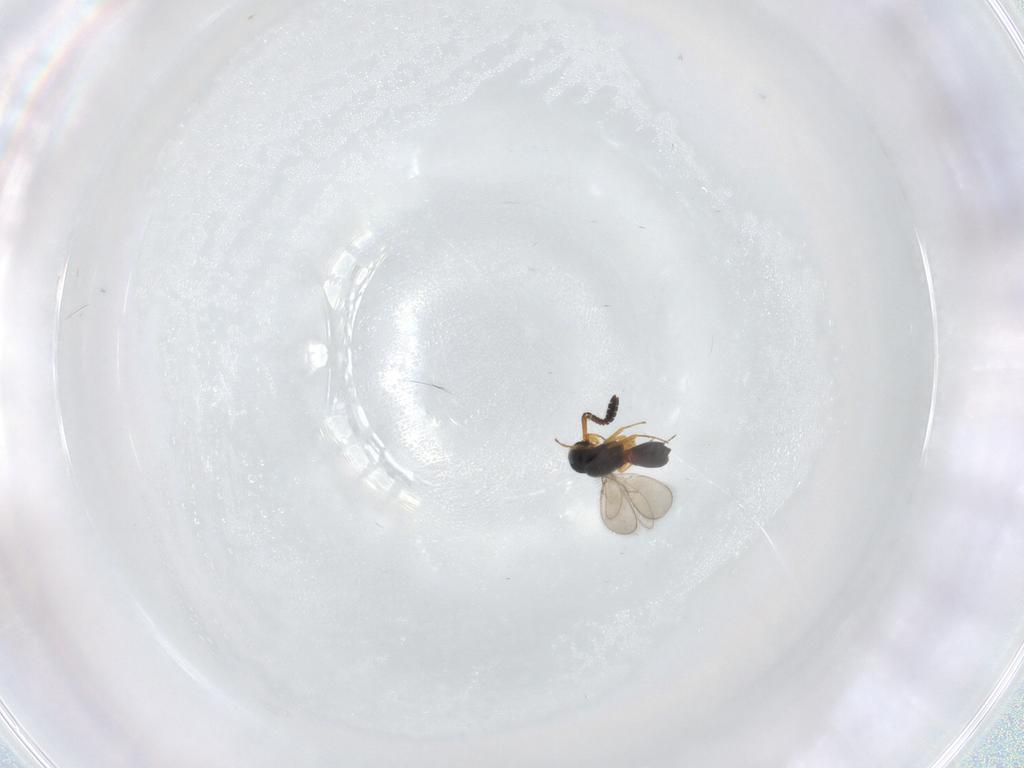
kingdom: Animalia
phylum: Arthropoda
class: Insecta
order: Hymenoptera
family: Scelionidae
